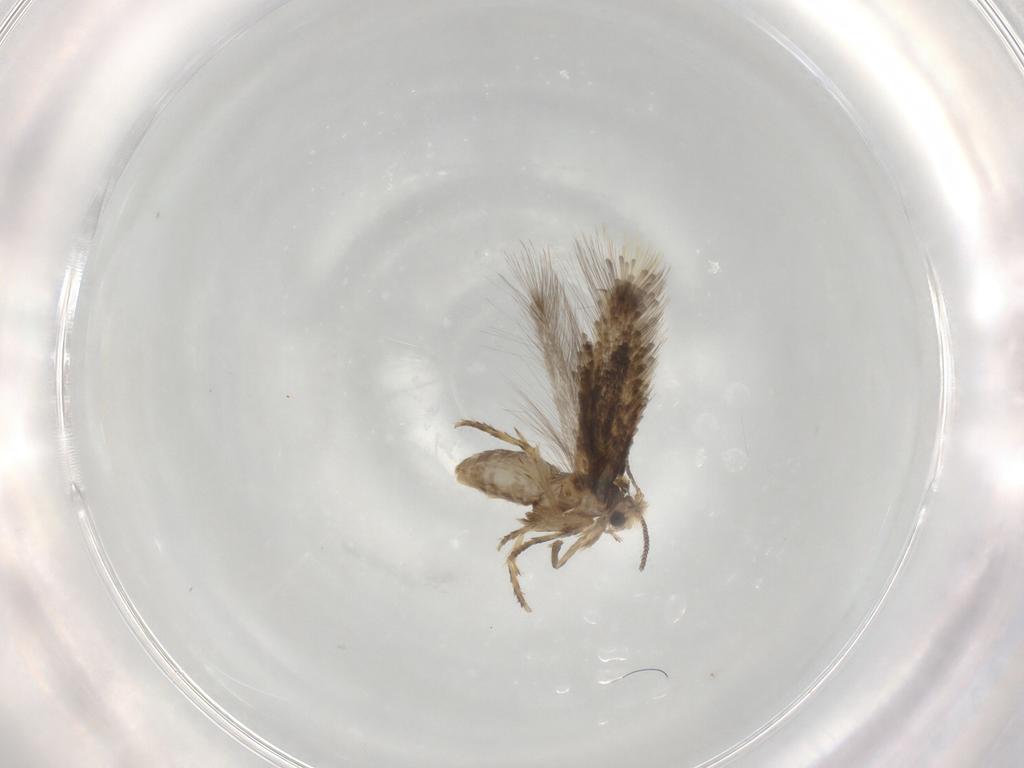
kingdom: Animalia
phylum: Arthropoda
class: Insecta
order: Lepidoptera
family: Nepticulidae
